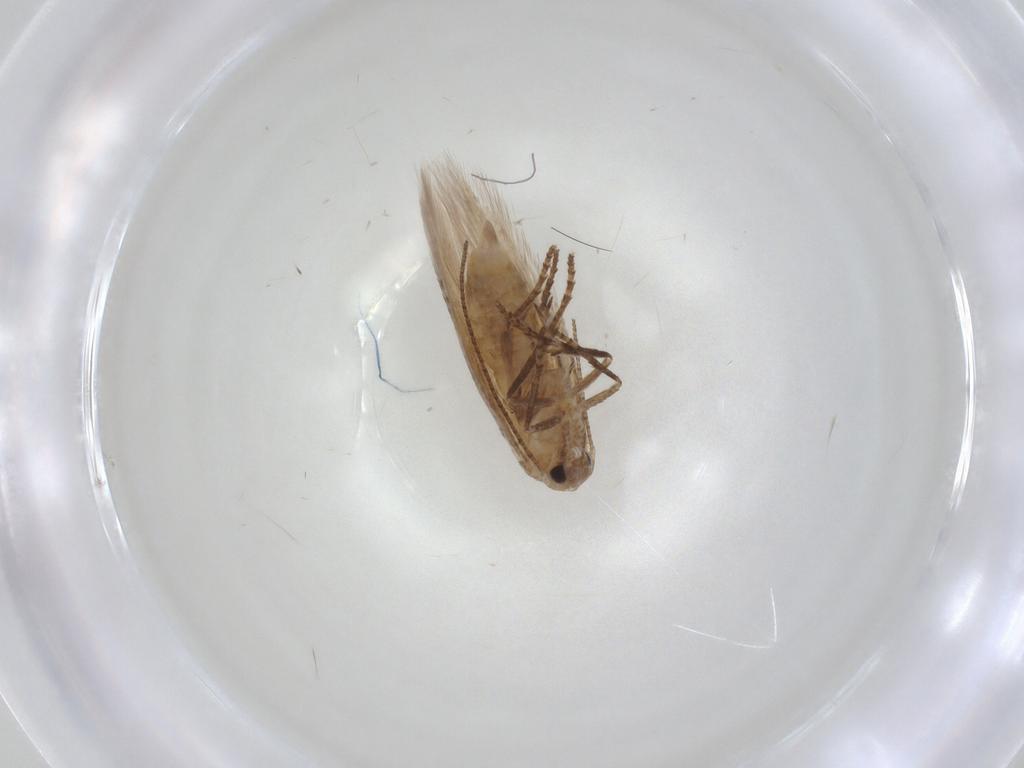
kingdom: Animalia
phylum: Arthropoda
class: Insecta
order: Lepidoptera
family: Bucculatricidae
